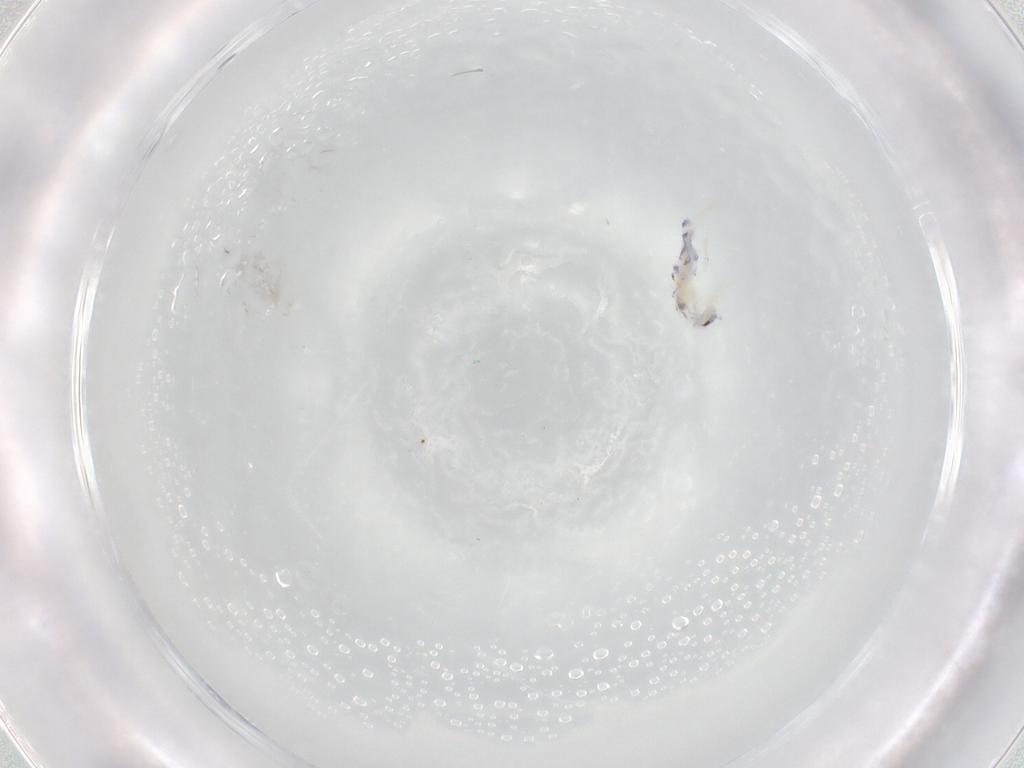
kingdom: Animalia
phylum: Arthropoda
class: Collembola
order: Entomobryomorpha
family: Entomobryidae
